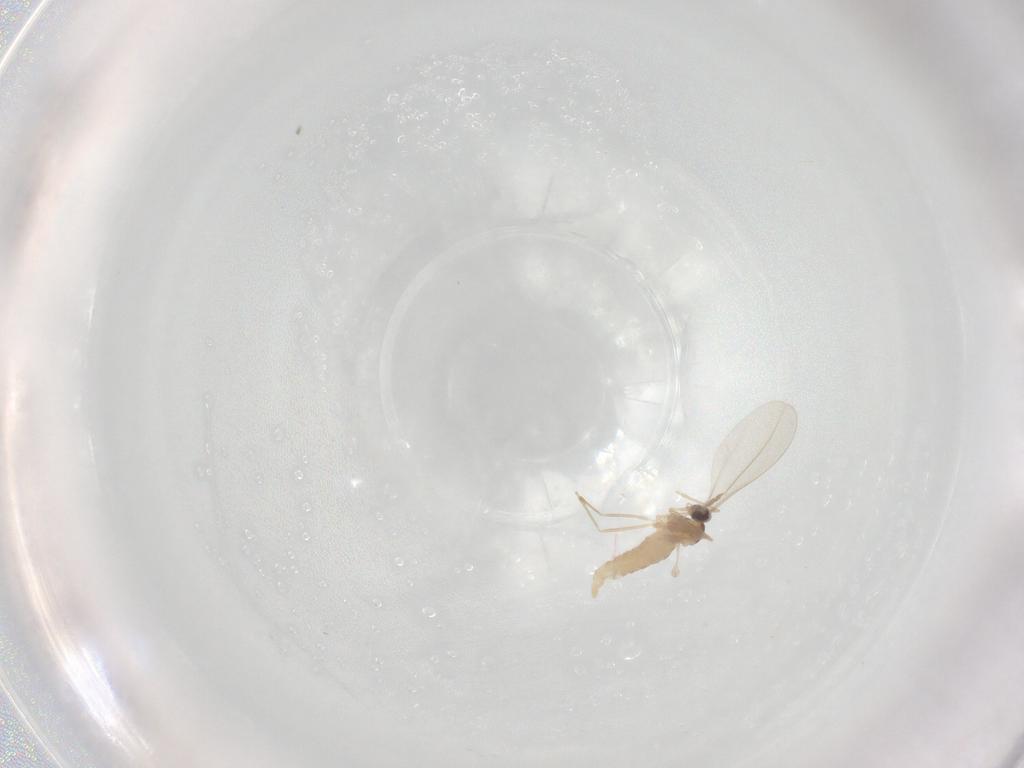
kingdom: Animalia
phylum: Arthropoda
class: Insecta
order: Diptera
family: Cecidomyiidae
